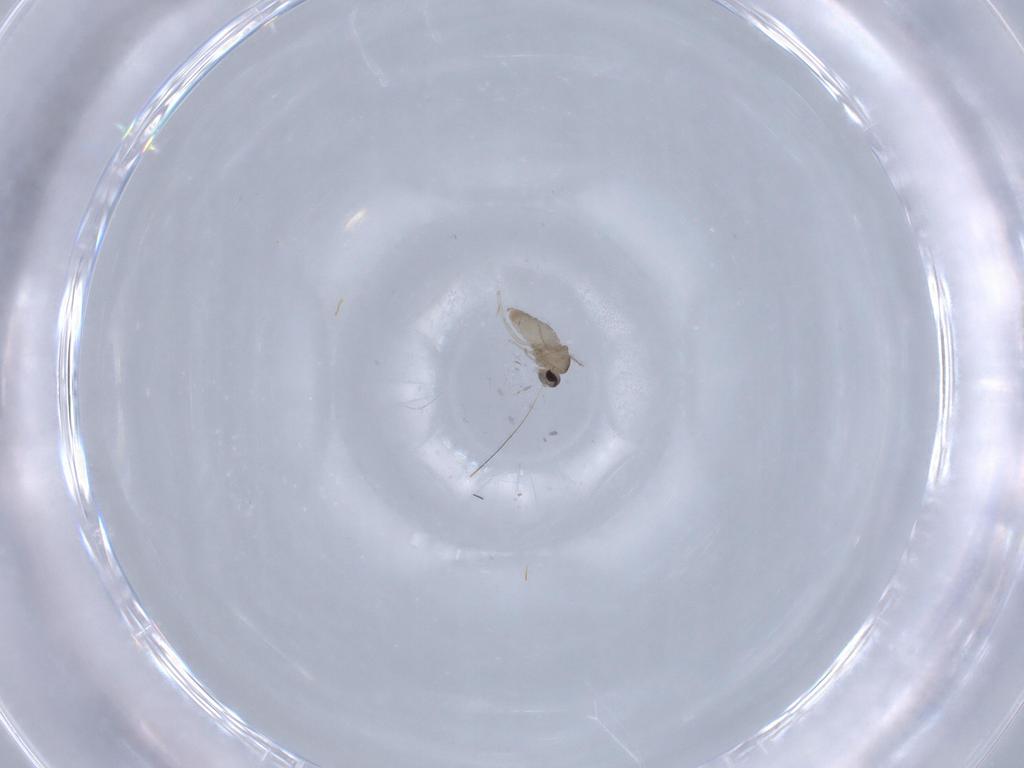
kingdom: Animalia
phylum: Arthropoda
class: Insecta
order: Diptera
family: Cecidomyiidae
